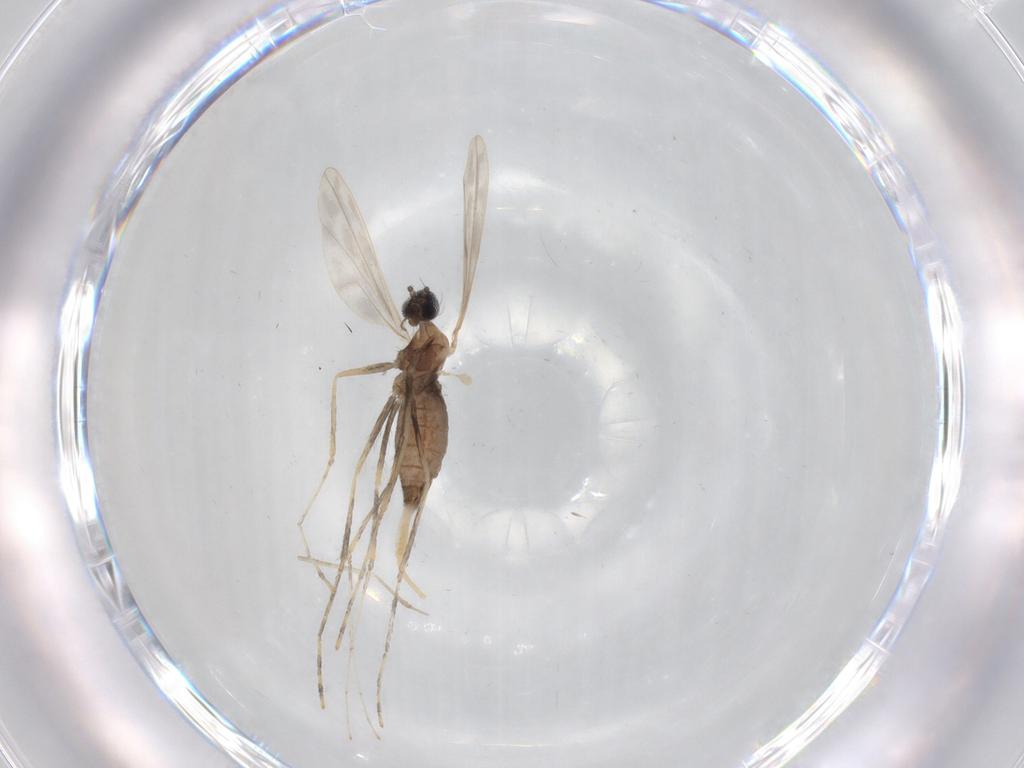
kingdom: Animalia
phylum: Arthropoda
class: Insecta
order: Diptera
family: Cecidomyiidae
